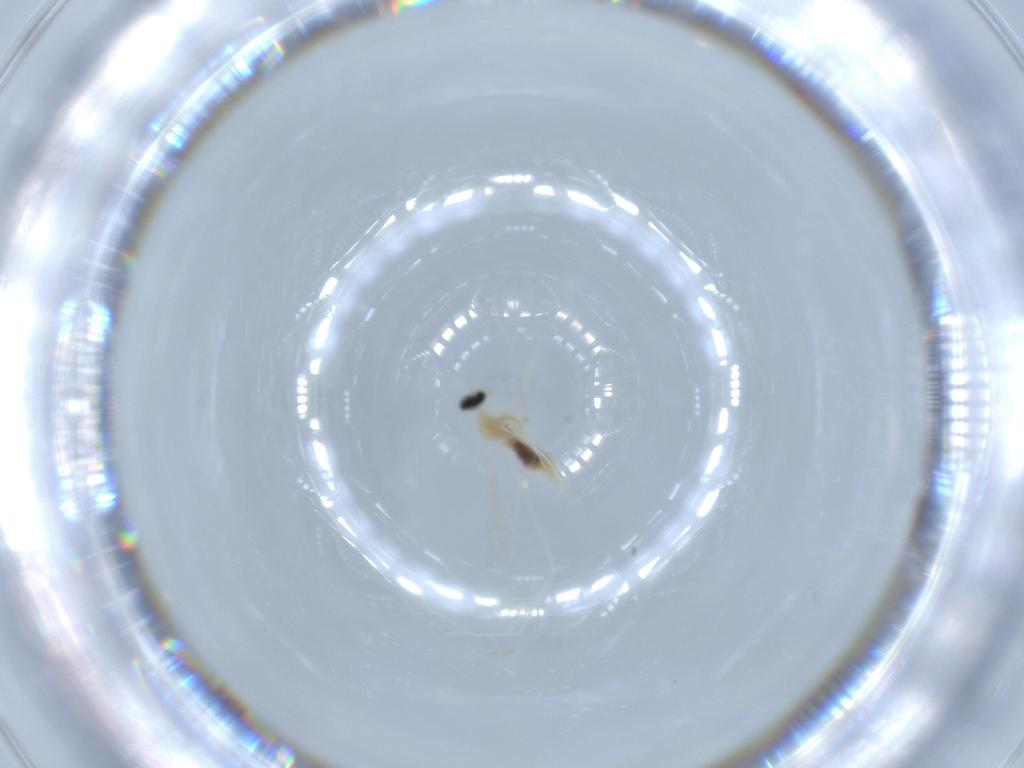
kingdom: Animalia
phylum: Arthropoda
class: Insecta
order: Diptera
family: Cecidomyiidae
